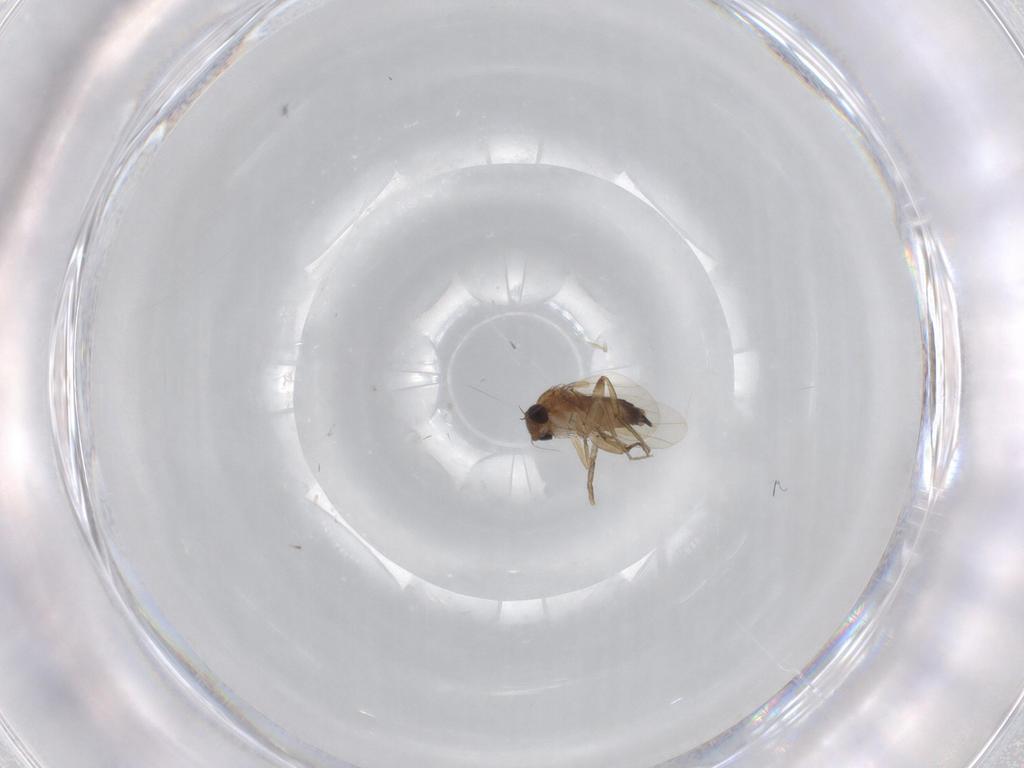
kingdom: Animalia
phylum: Arthropoda
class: Insecta
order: Diptera
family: Phoridae
